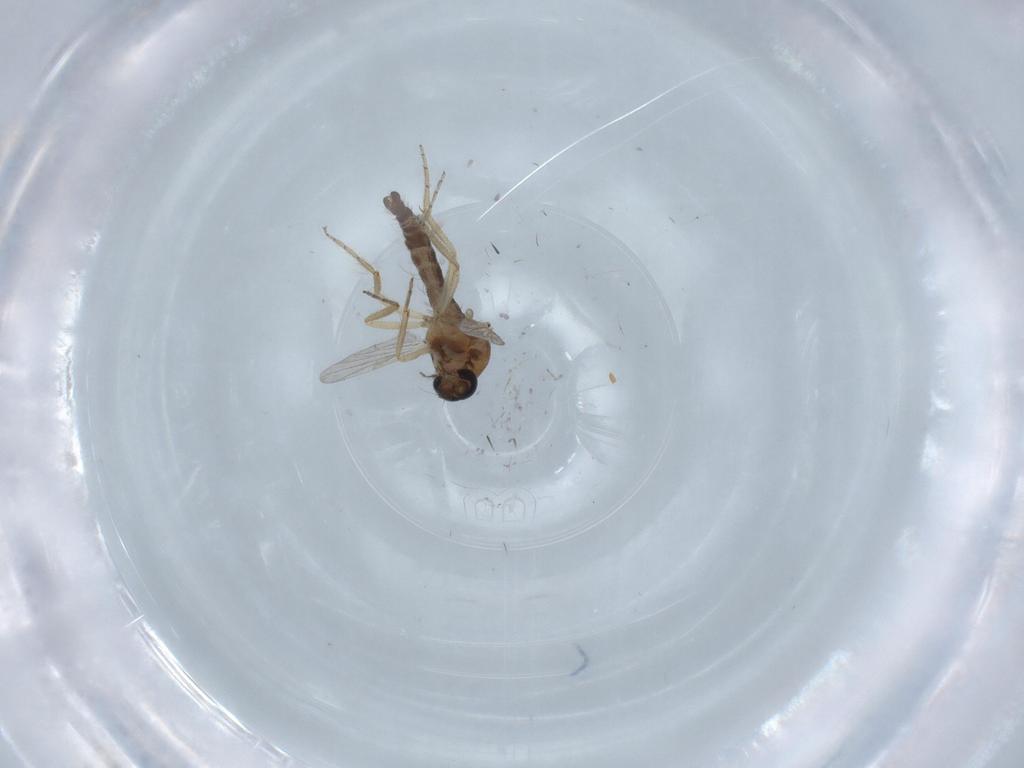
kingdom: Animalia
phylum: Arthropoda
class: Insecta
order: Diptera
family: Ceratopogonidae
